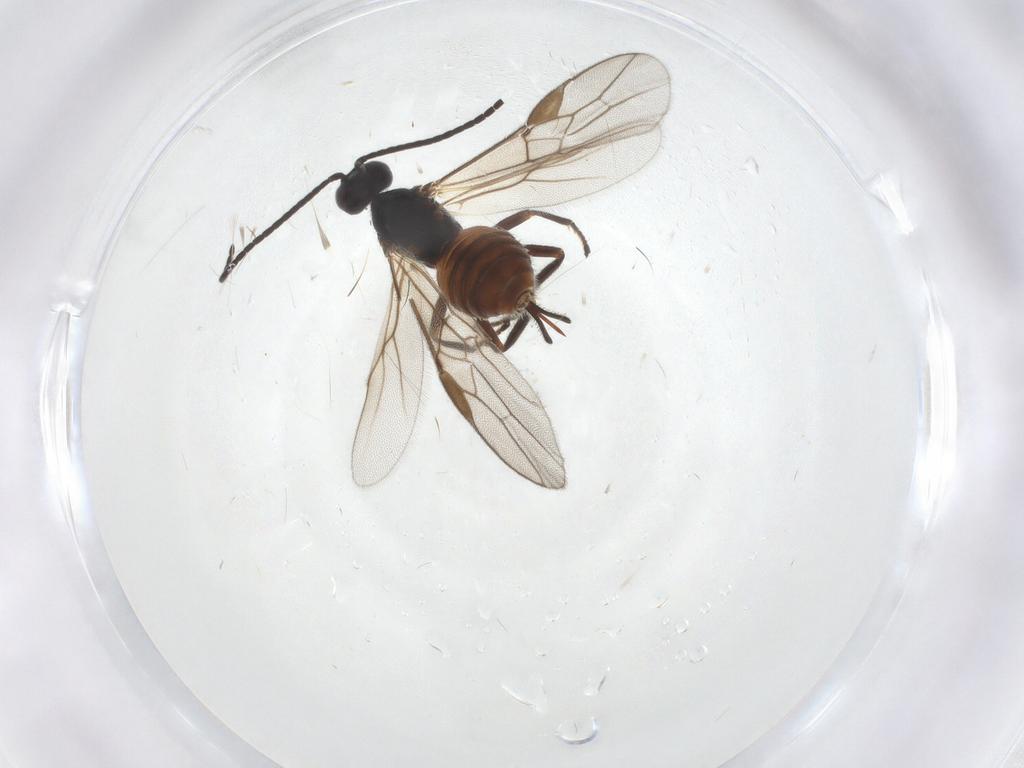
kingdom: Animalia
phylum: Arthropoda
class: Insecta
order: Hymenoptera
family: Braconidae
